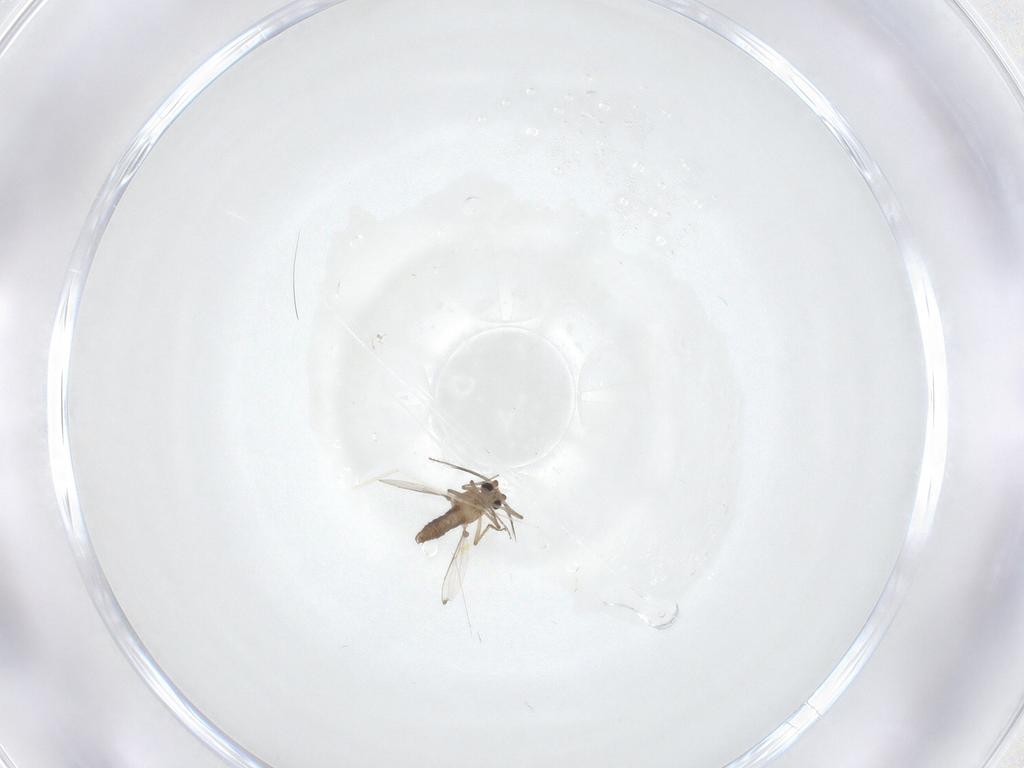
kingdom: Animalia
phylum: Arthropoda
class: Insecta
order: Diptera
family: Ceratopogonidae
